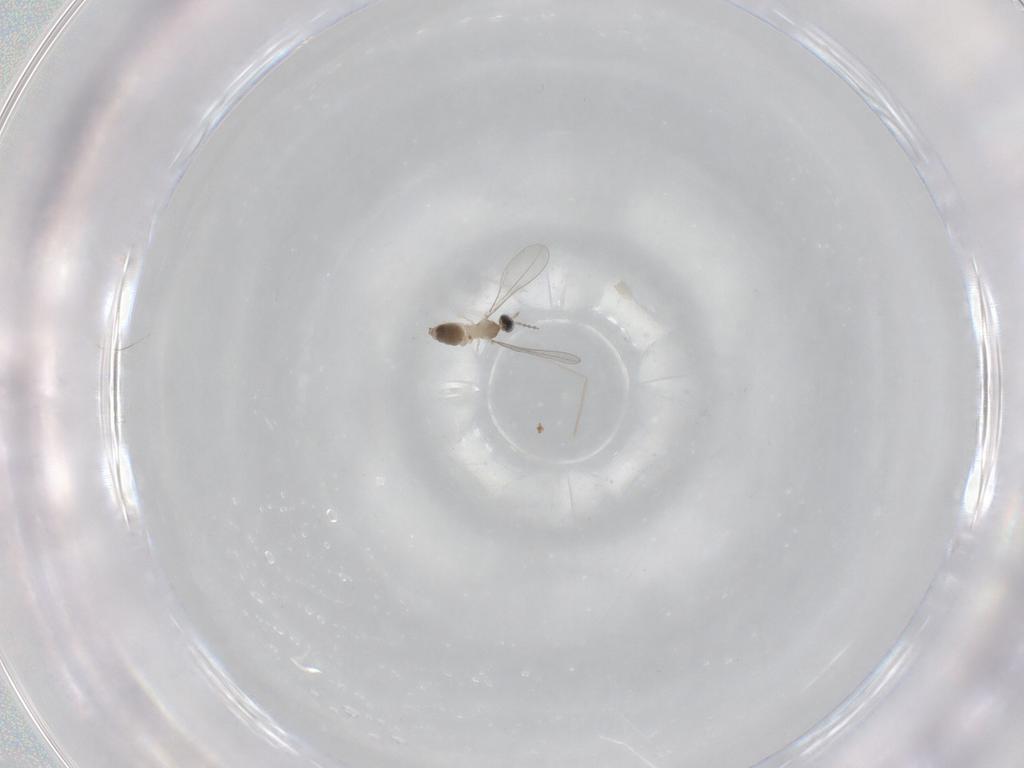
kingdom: Animalia
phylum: Arthropoda
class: Insecta
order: Diptera
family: Cecidomyiidae
